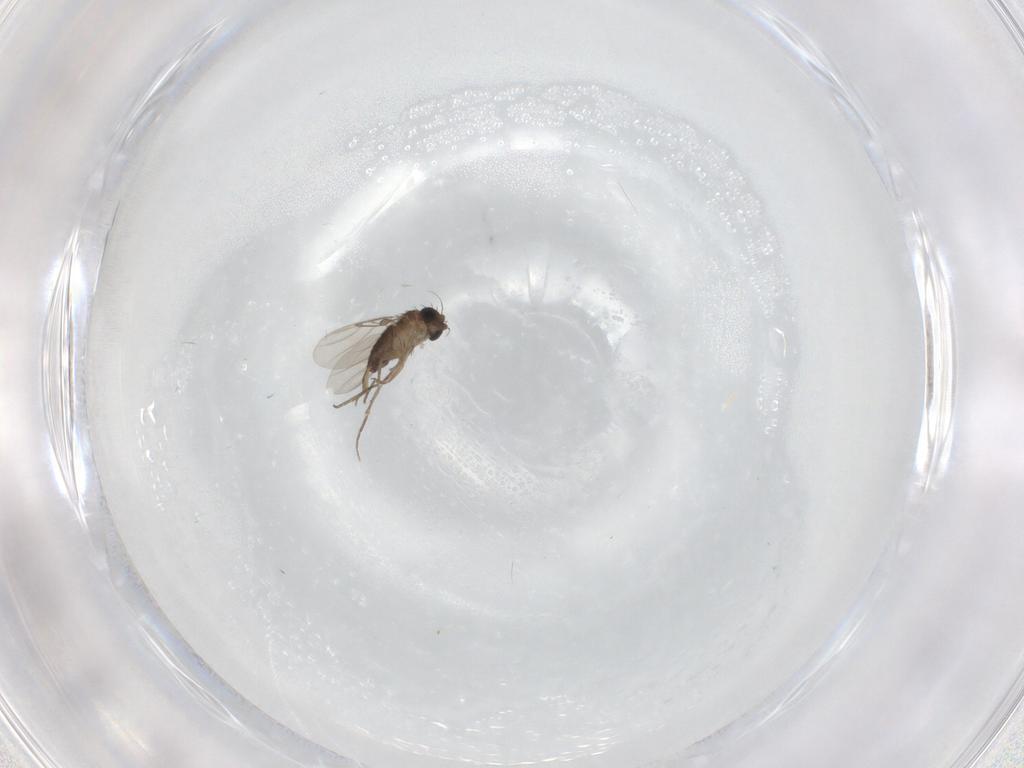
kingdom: Animalia
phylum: Arthropoda
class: Insecta
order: Diptera
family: Phoridae
